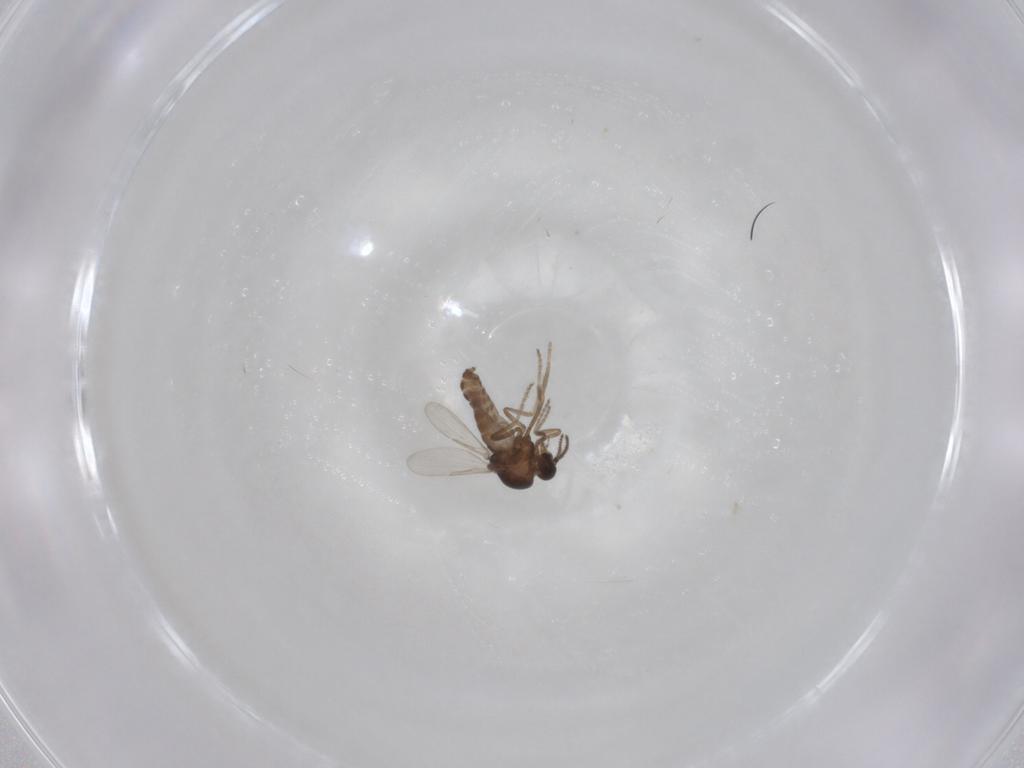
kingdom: Animalia
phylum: Arthropoda
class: Insecta
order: Diptera
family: Ceratopogonidae
